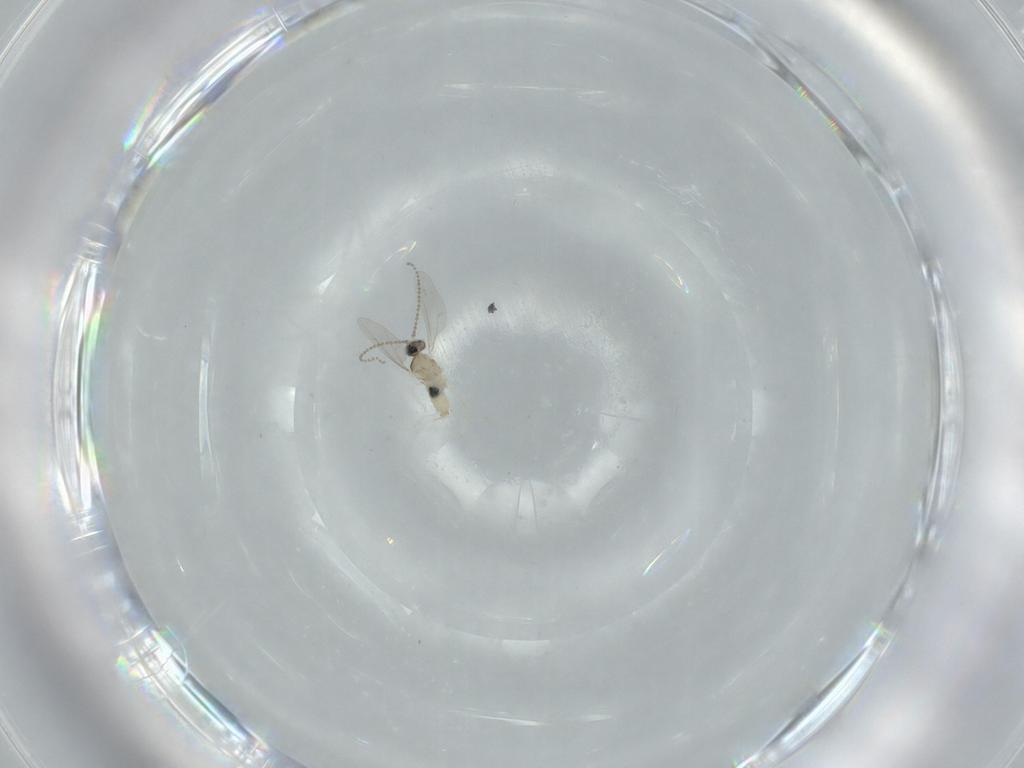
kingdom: Animalia
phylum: Arthropoda
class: Insecta
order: Diptera
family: Cecidomyiidae
